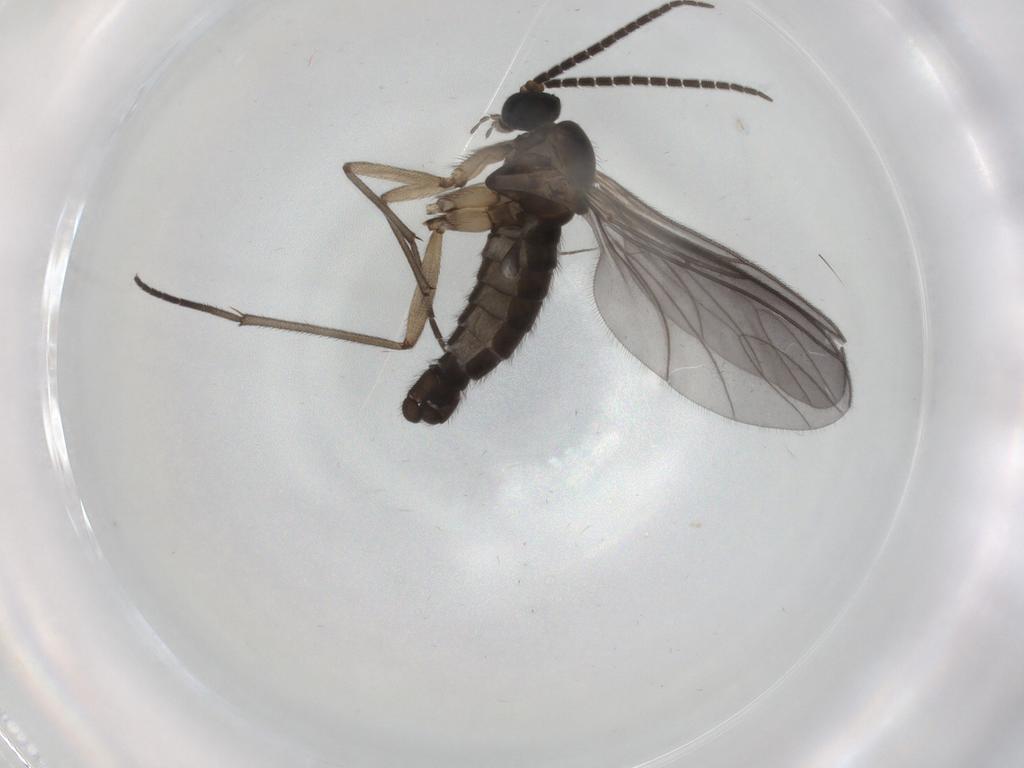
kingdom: Animalia
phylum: Arthropoda
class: Insecta
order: Diptera
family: Sciaridae
